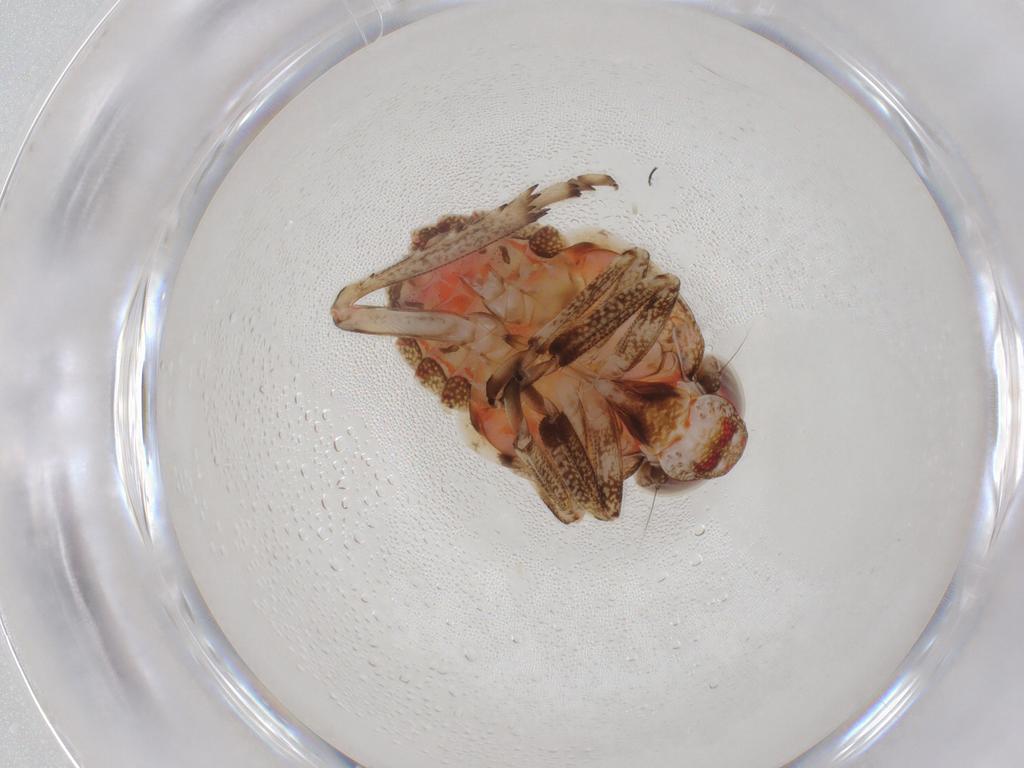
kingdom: Animalia
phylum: Arthropoda
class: Insecta
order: Hemiptera
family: Issidae
